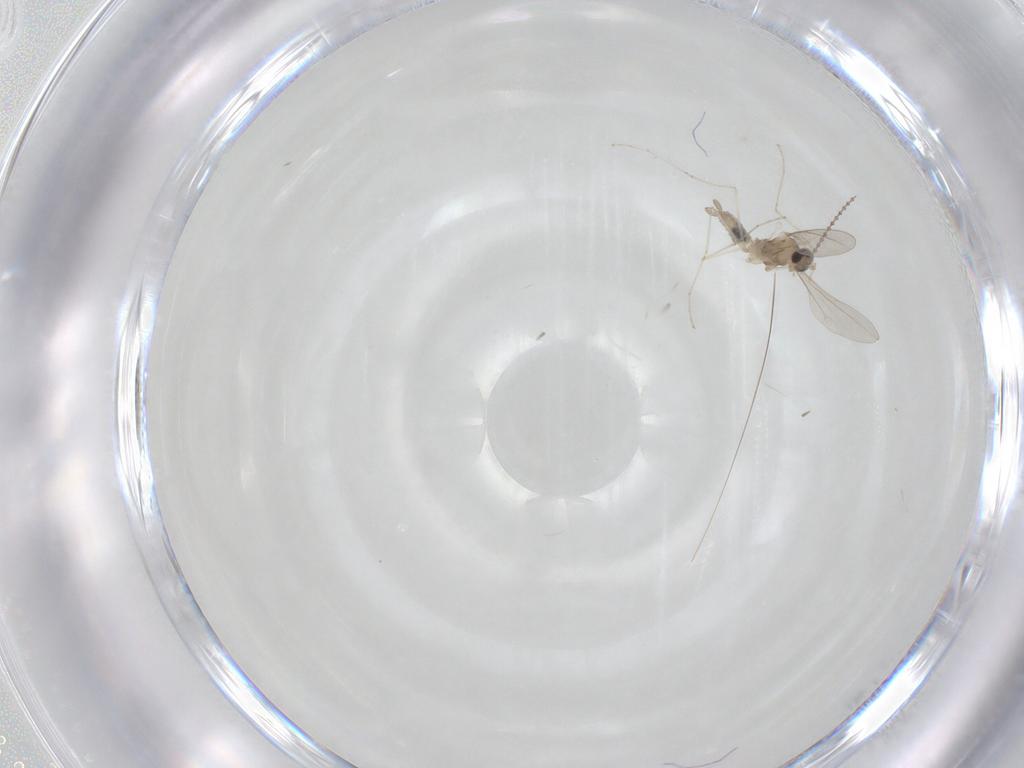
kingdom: Animalia
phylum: Arthropoda
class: Insecta
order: Diptera
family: Cecidomyiidae
